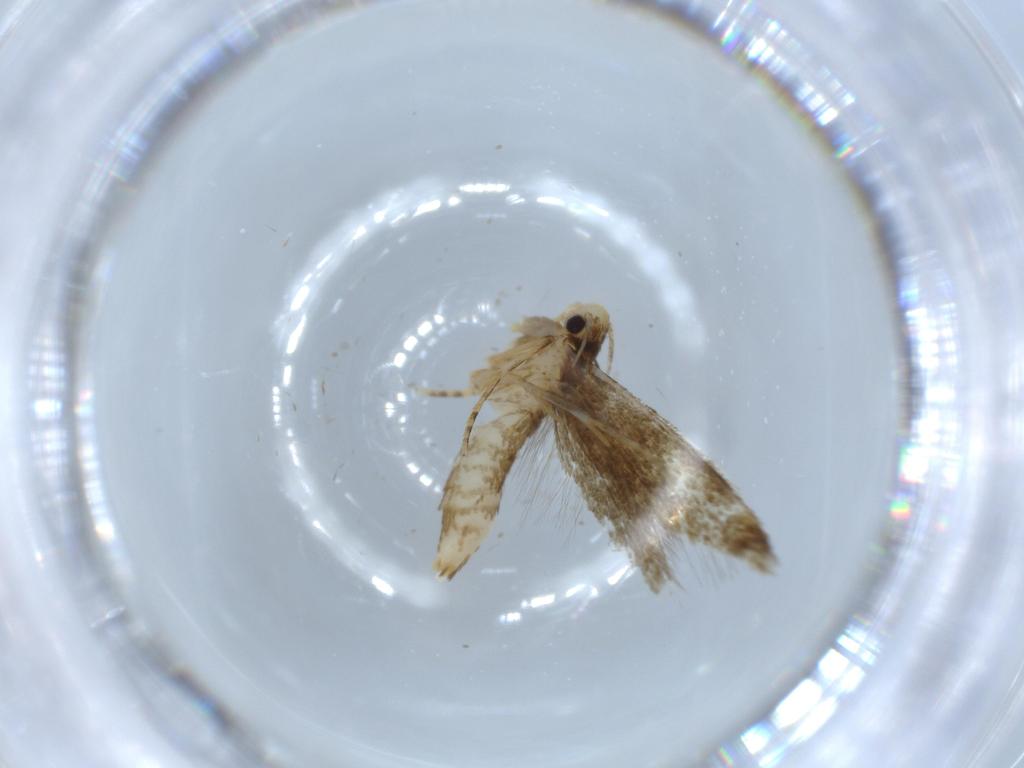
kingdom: Animalia
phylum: Arthropoda
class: Insecta
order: Lepidoptera
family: Tineidae
